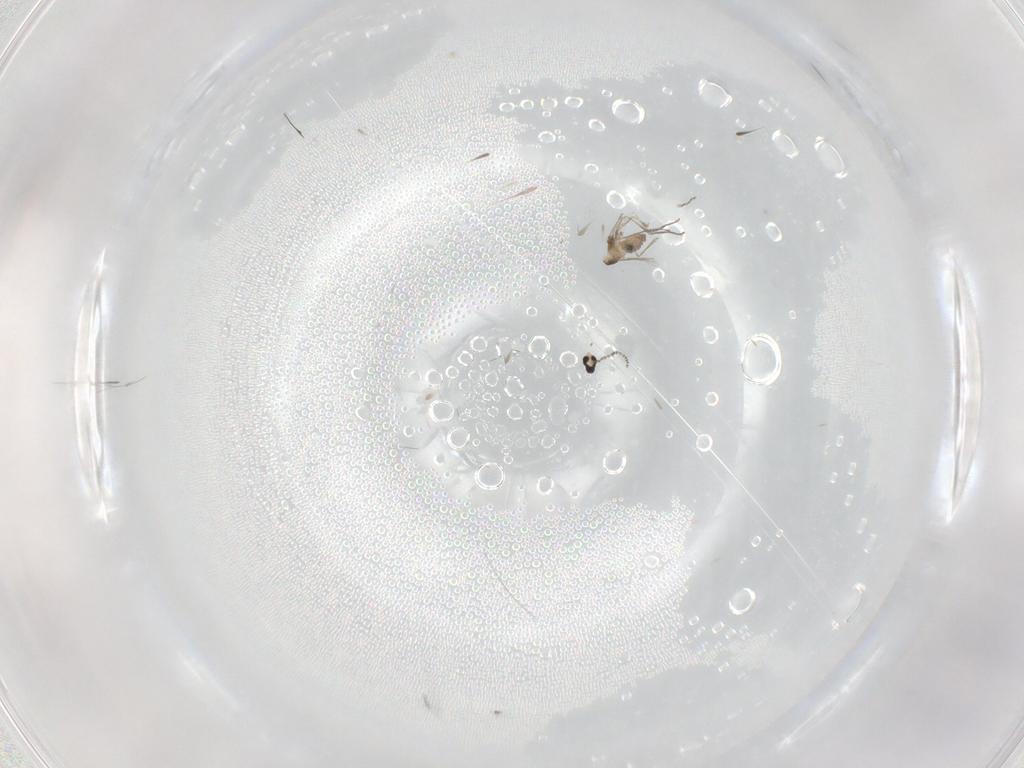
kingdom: Animalia
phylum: Arthropoda
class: Insecta
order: Diptera
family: Cecidomyiidae
